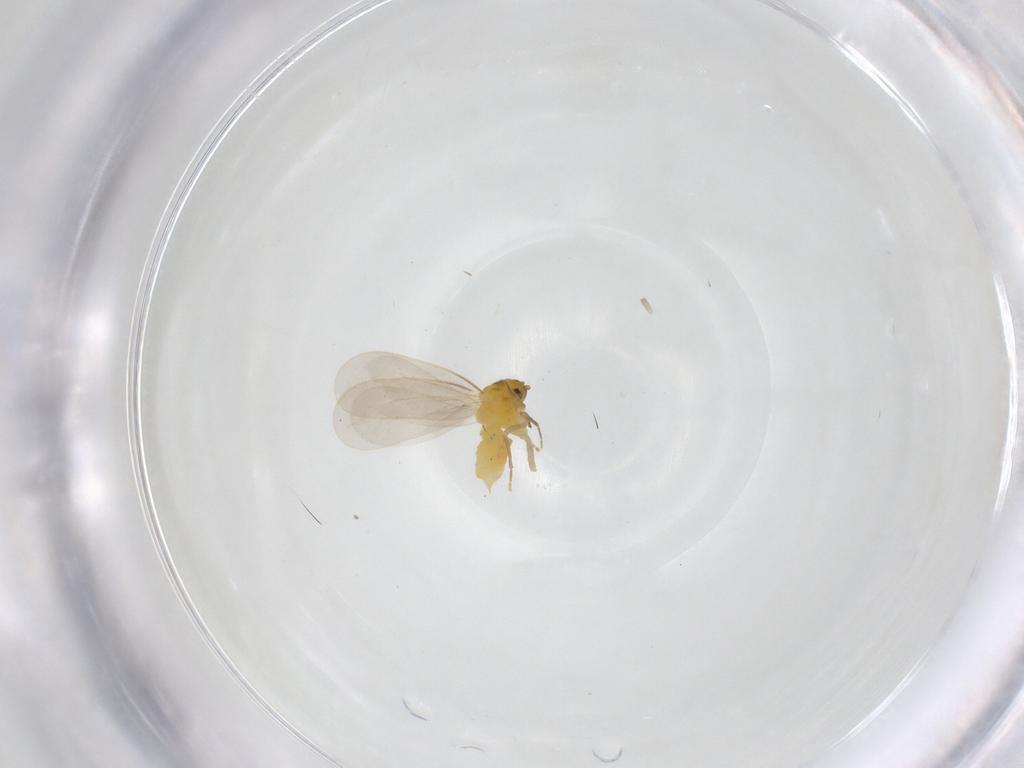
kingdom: Animalia
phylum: Arthropoda
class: Insecta
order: Hemiptera
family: Aleyrodidae
